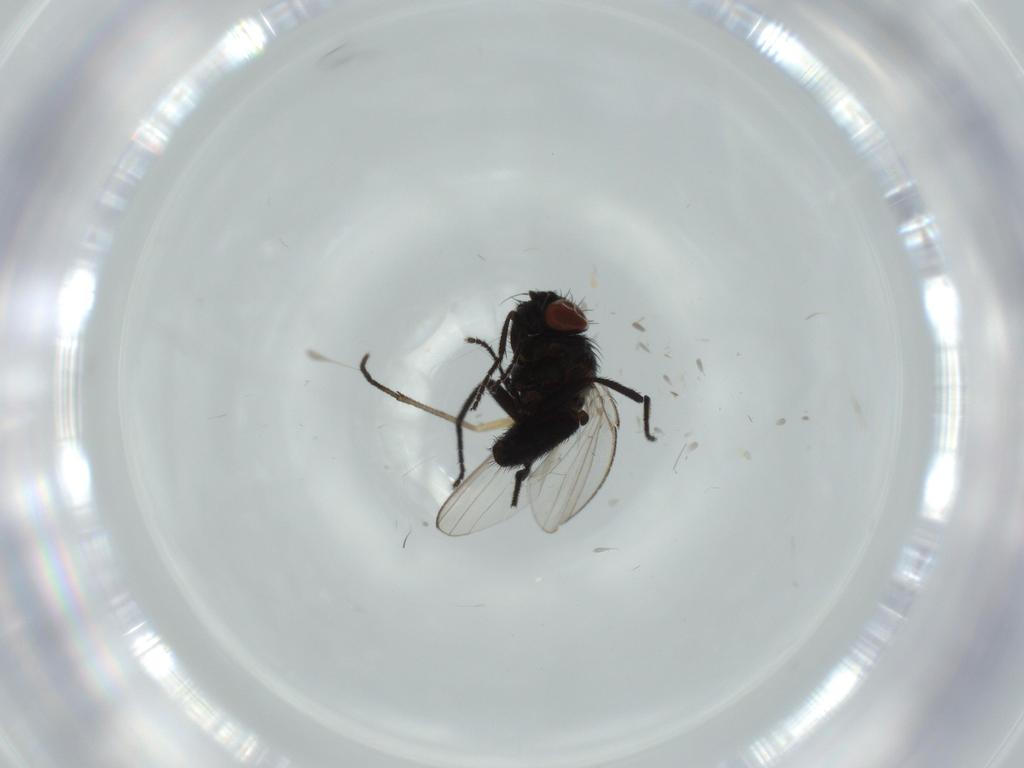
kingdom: Animalia
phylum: Arthropoda
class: Insecta
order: Diptera
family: Milichiidae
